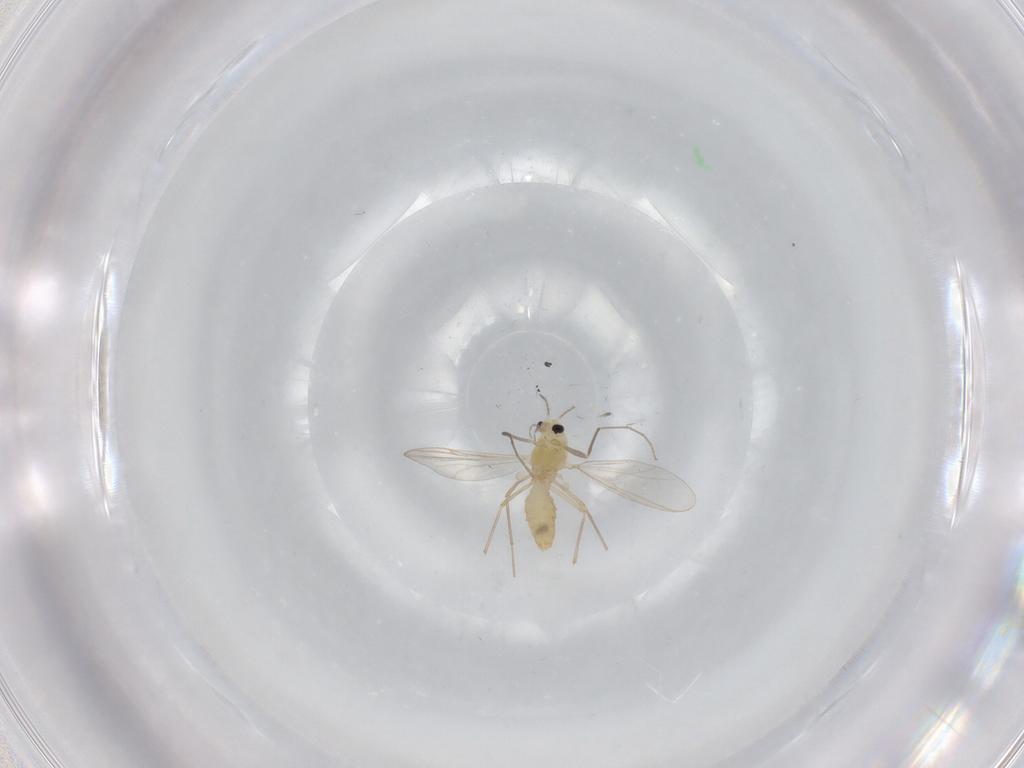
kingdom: Animalia
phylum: Arthropoda
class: Insecta
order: Diptera
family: Chironomidae
